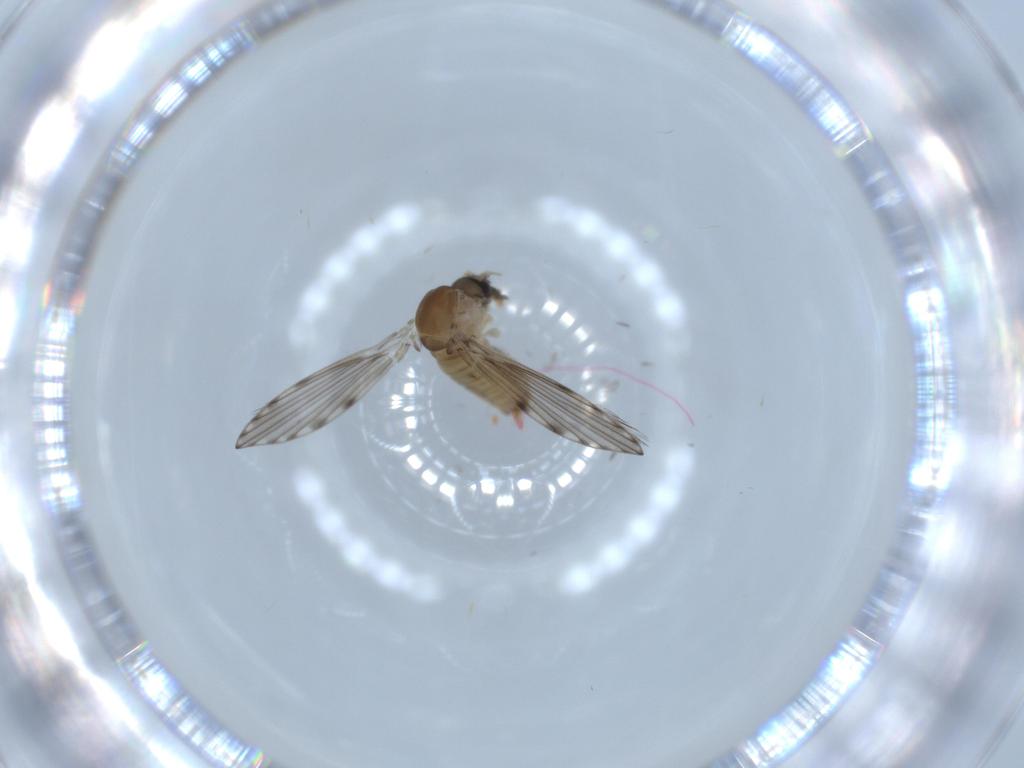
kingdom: Animalia
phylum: Arthropoda
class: Insecta
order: Diptera
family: Psychodidae
